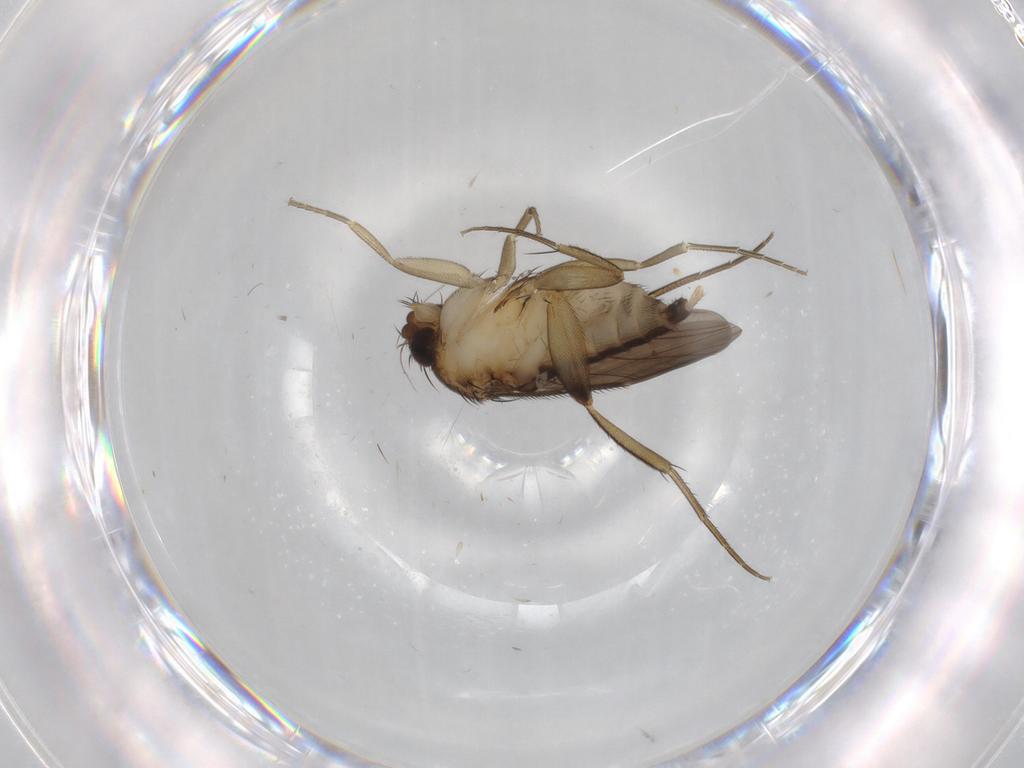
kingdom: Animalia
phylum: Arthropoda
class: Insecta
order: Diptera
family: Phoridae
